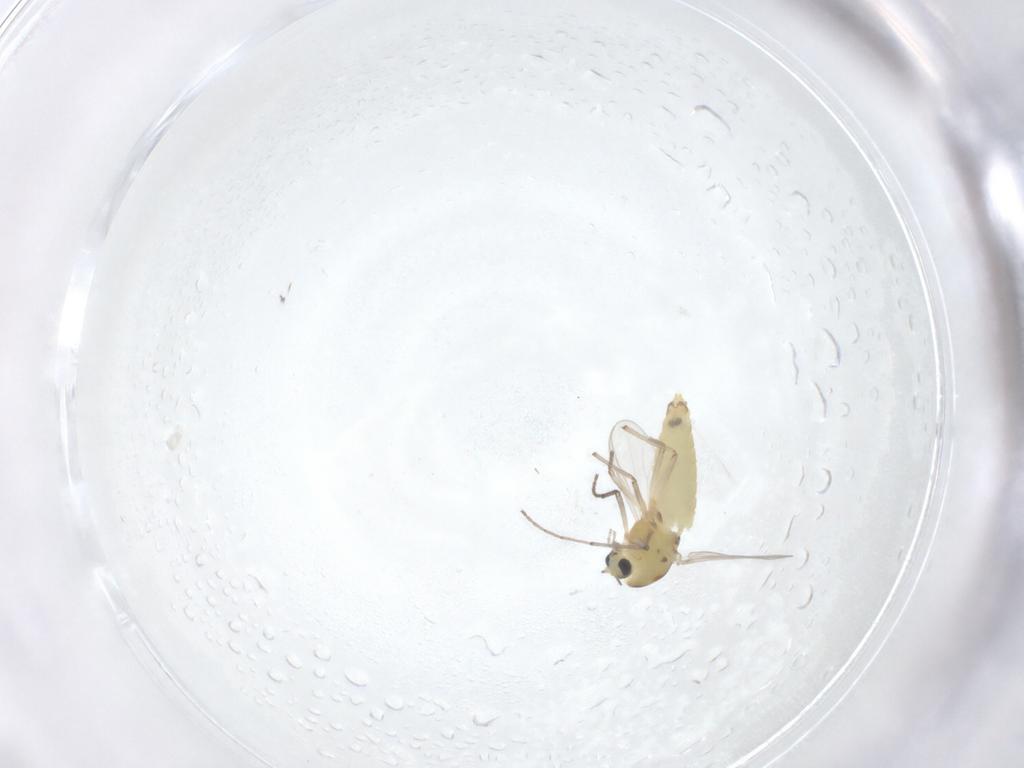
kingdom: Animalia
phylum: Arthropoda
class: Insecta
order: Diptera
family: Chironomidae
